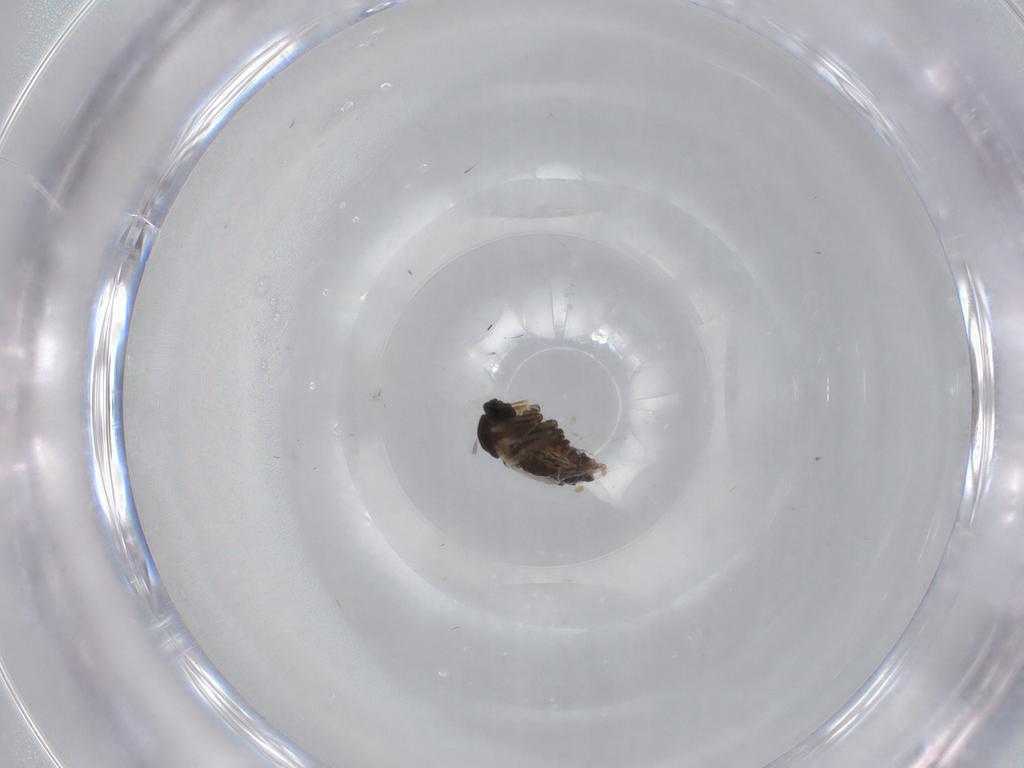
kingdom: Animalia
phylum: Arthropoda
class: Insecta
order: Diptera
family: Cecidomyiidae
